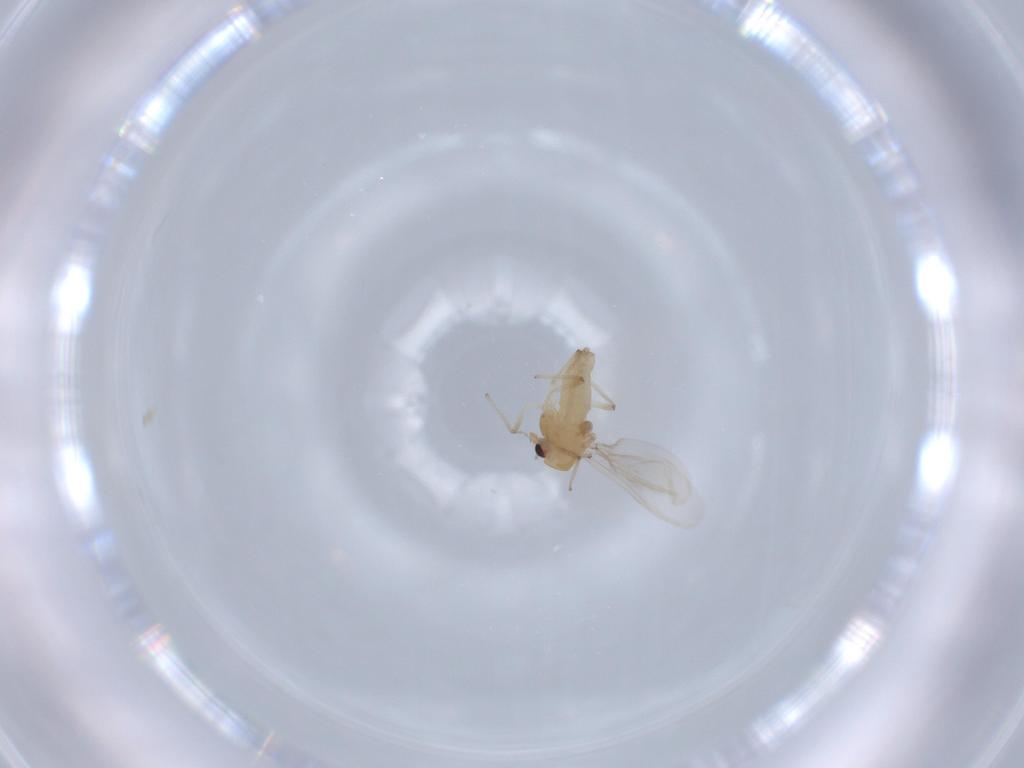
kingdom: Animalia
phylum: Arthropoda
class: Insecta
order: Diptera
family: Chironomidae
